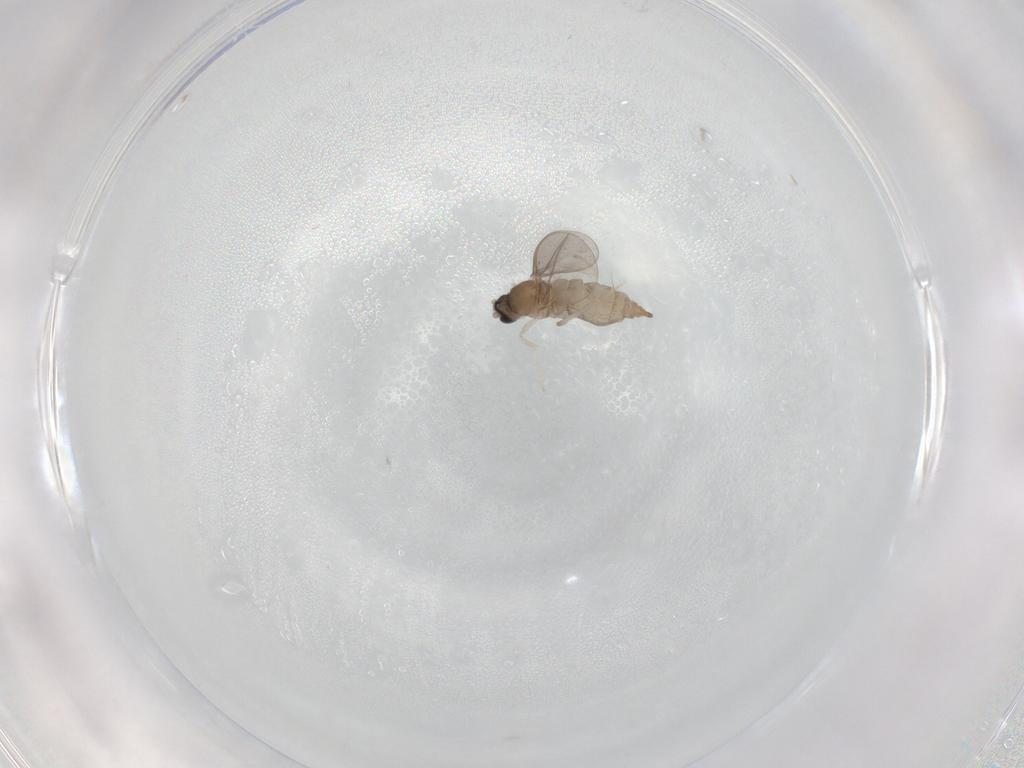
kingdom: Animalia
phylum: Arthropoda
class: Insecta
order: Diptera
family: Cecidomyiidae
